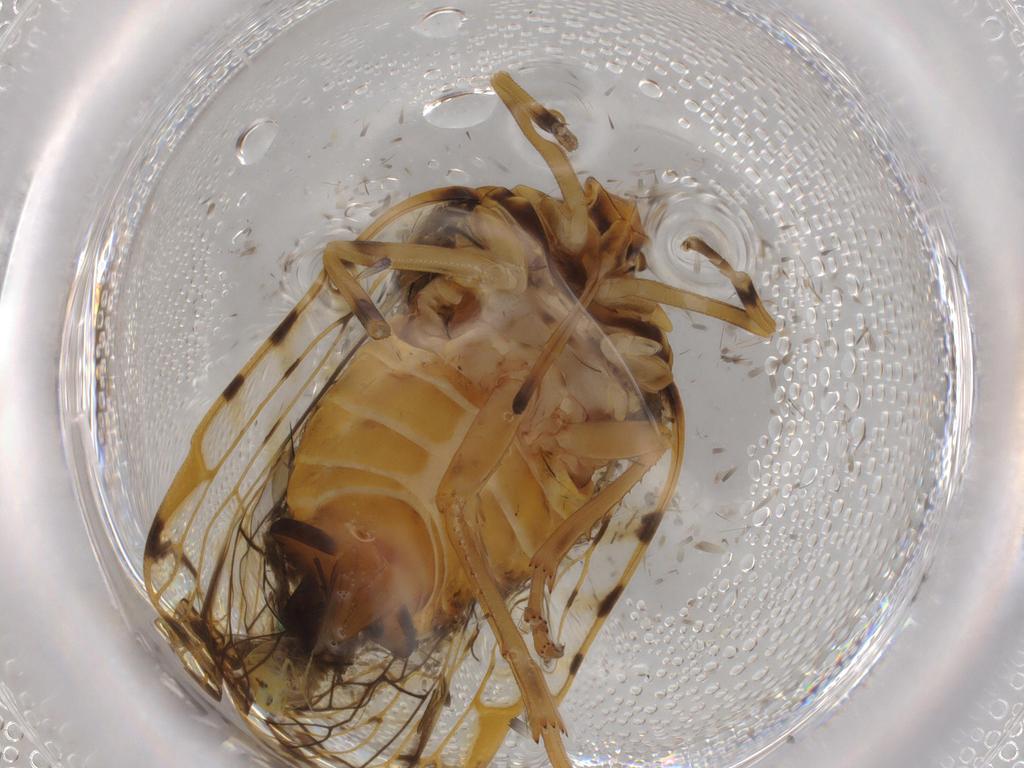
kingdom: Animalia
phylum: Arthropoda
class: Insecta
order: Hemiptera
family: Cixiidae
